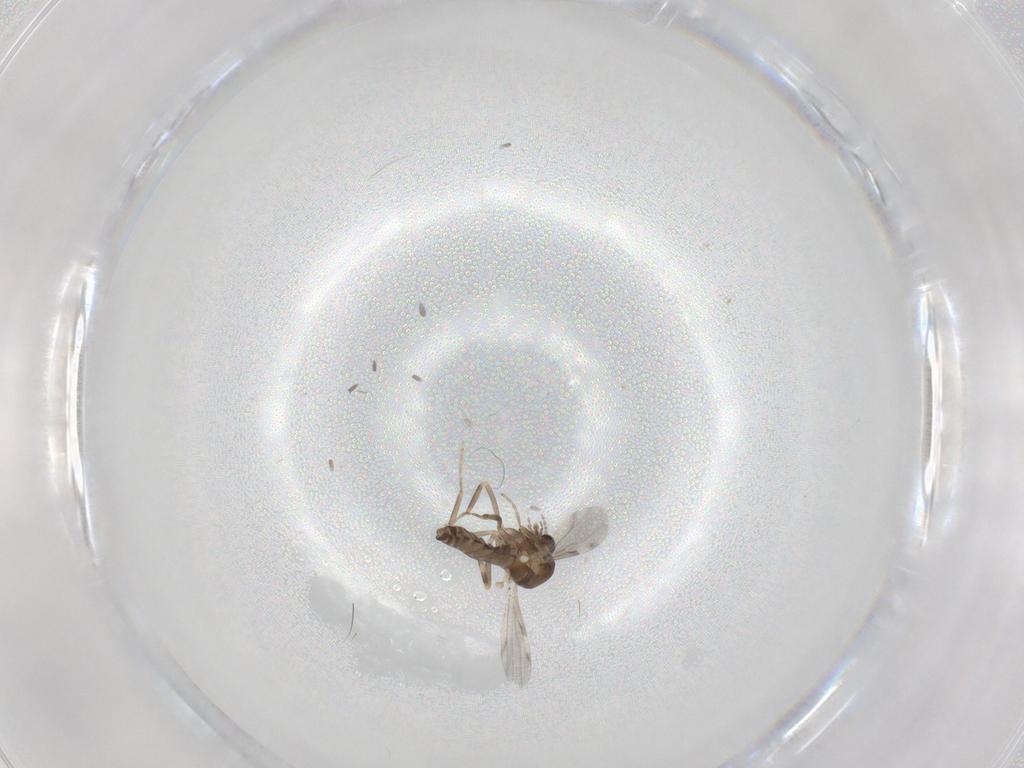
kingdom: Animalia
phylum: Arthropoda
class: Insecta
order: Diptera
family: Ceratopogonidae
